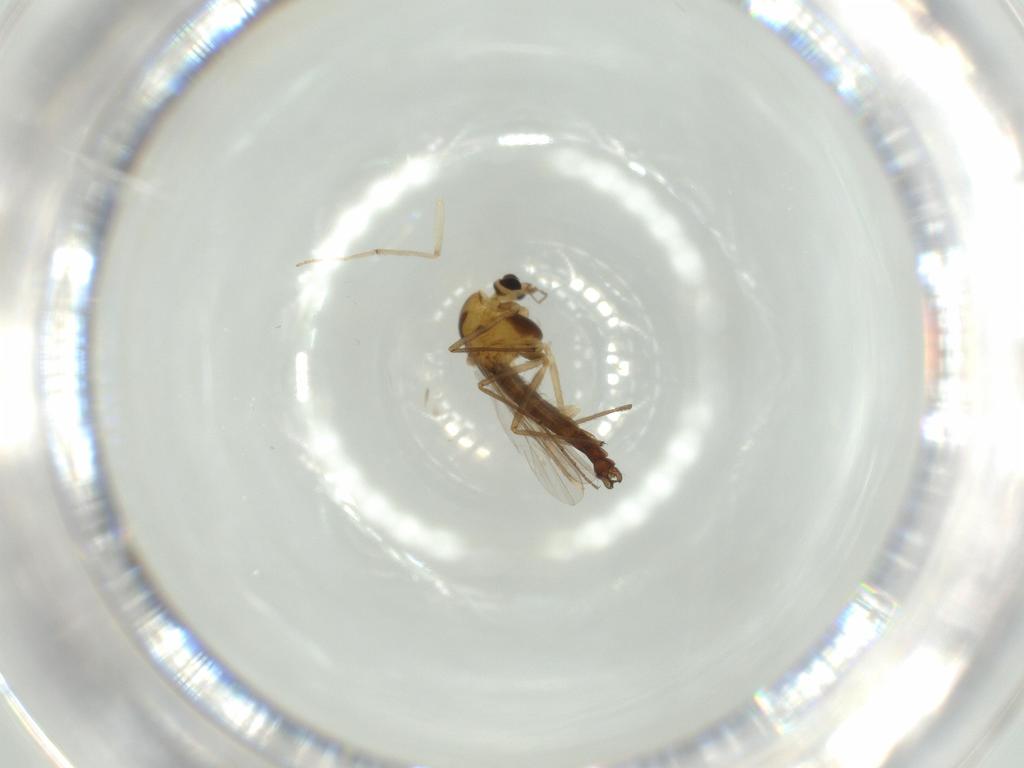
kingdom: Animalia
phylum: Arthropoda
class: Insecta
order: Diptera
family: Chironomidae
